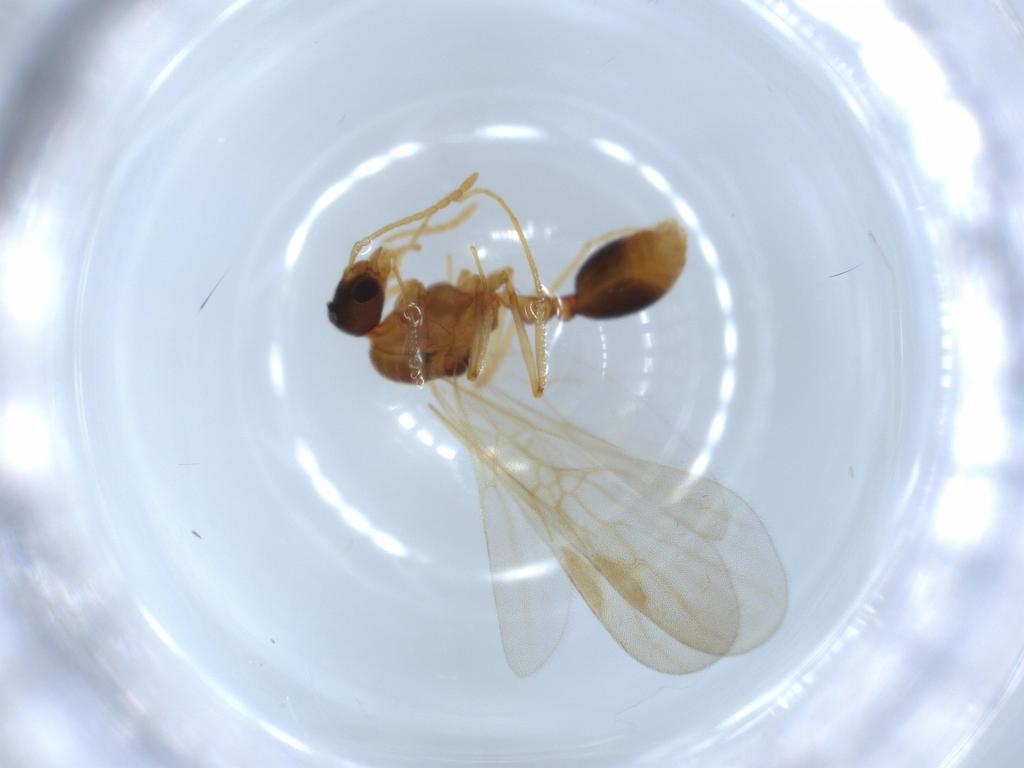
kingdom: Animalia
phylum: Arthropoda
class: Insecta
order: Hymenoptera
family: Formicidae
